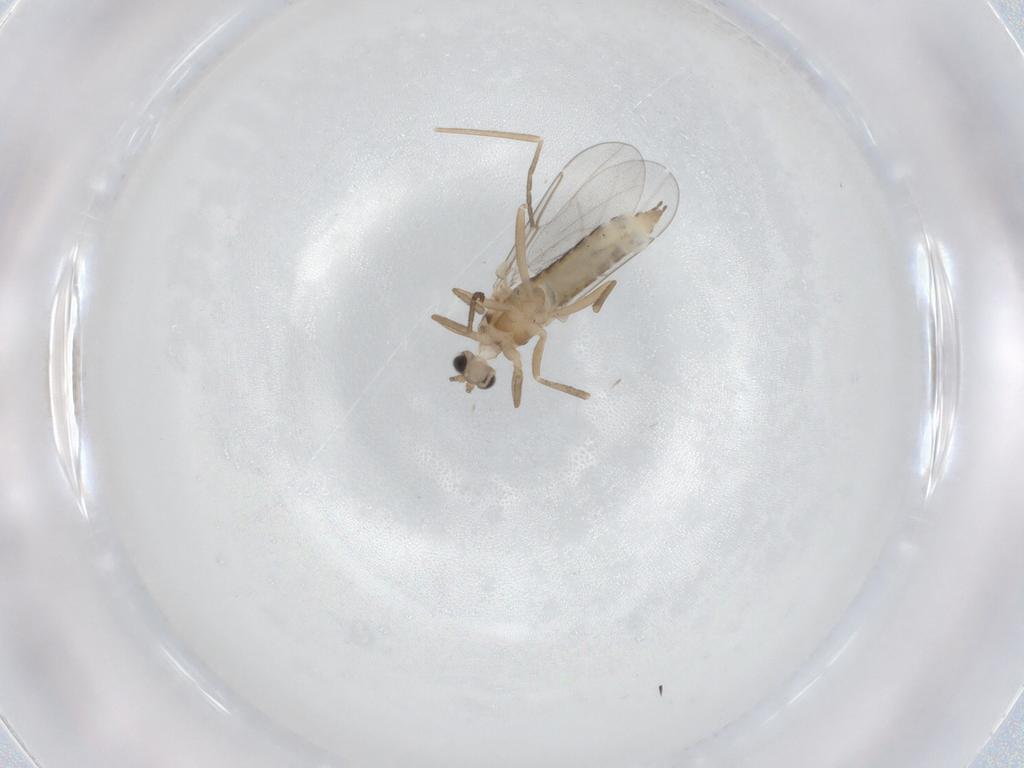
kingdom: Animalia
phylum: Arthropoda
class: Insecta
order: Diptera
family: Cecidomyiidae
